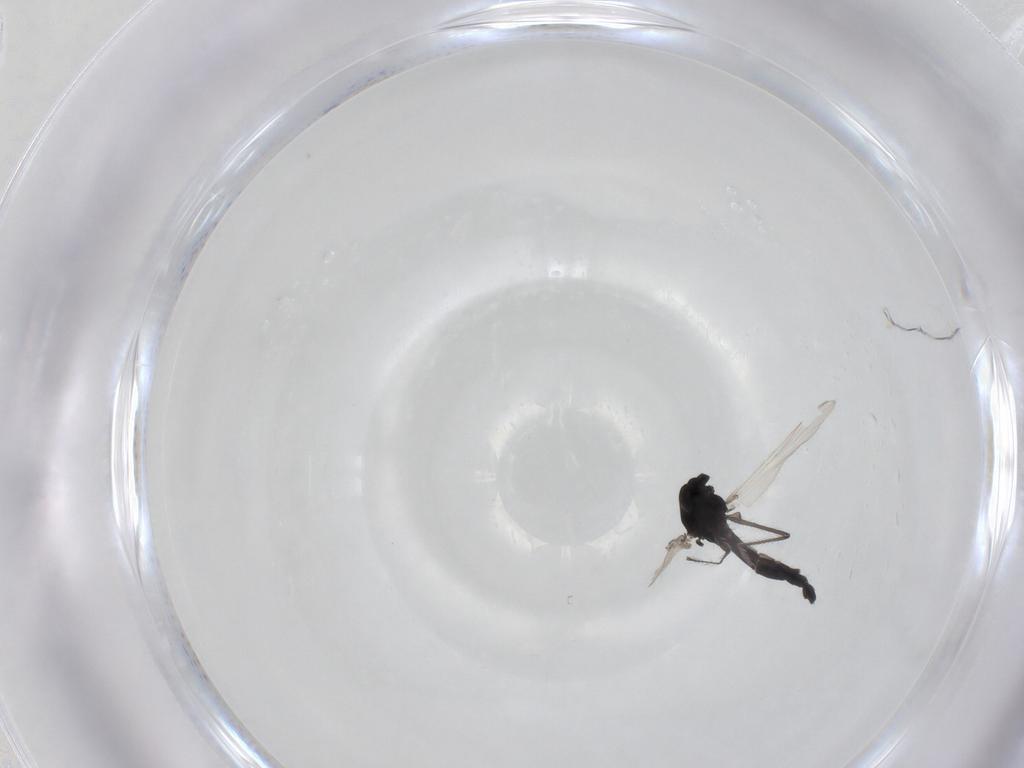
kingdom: Animalia
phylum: Arthropoda
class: Insecta
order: Diptera
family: Chironomidae
